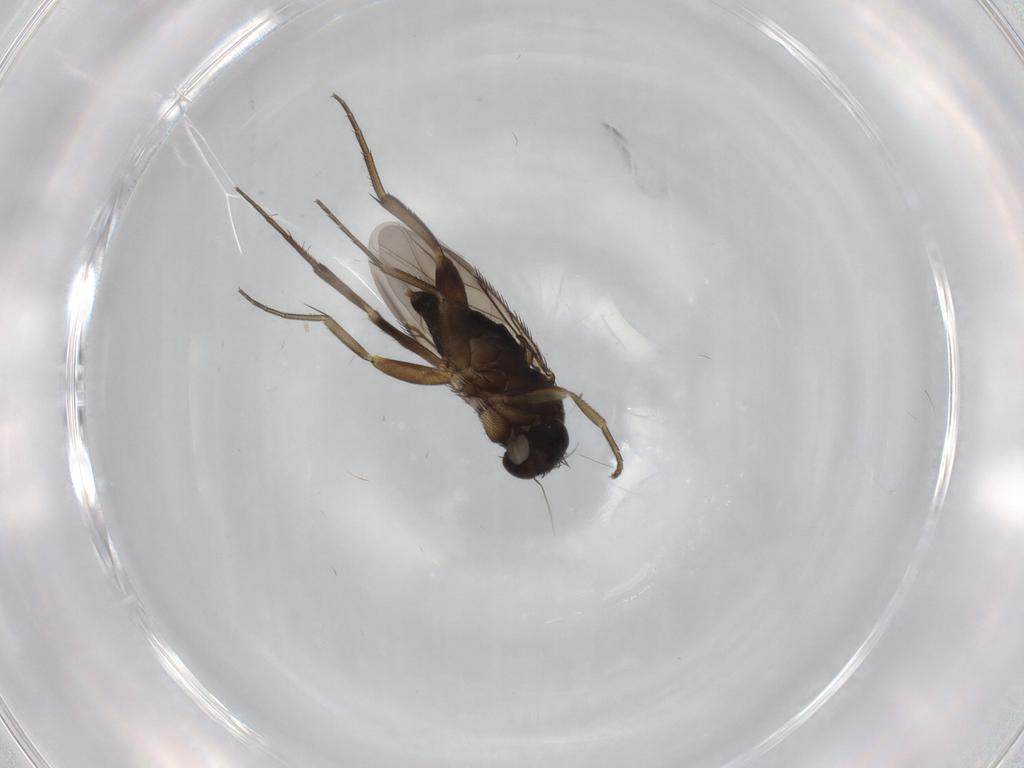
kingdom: Animalia
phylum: Arthropoda
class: Insecta
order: Diptera
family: Phoridae
